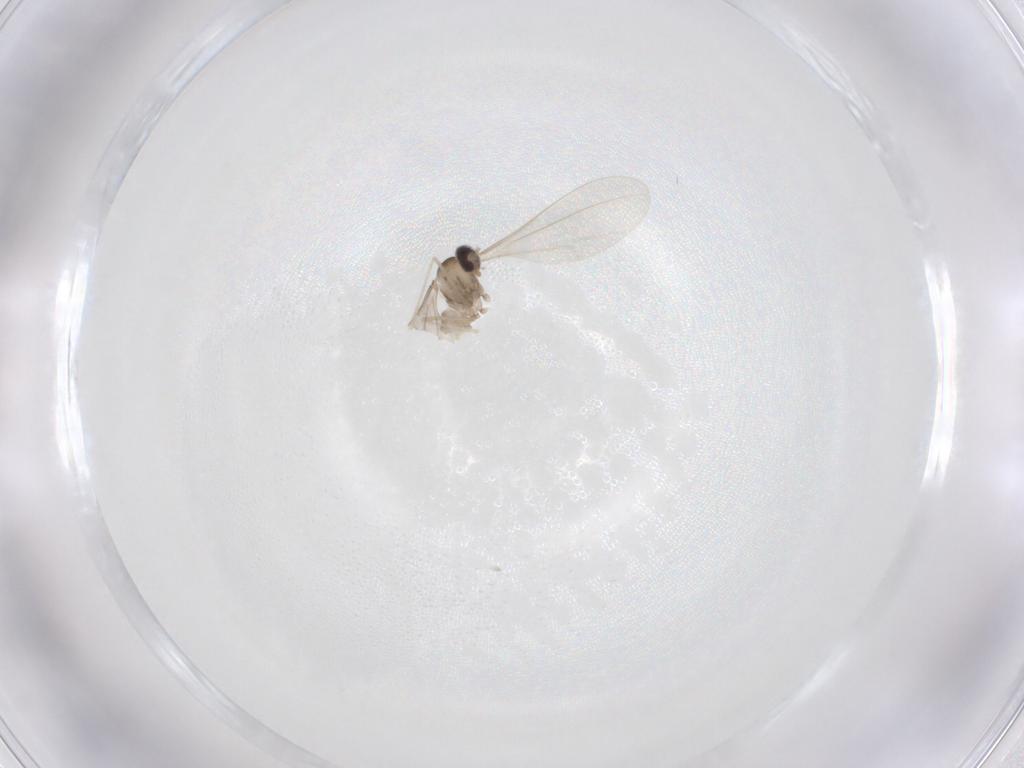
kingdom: Animalia
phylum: Arthropoda
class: Insecta
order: Diptera
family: Cecidomyiidae
